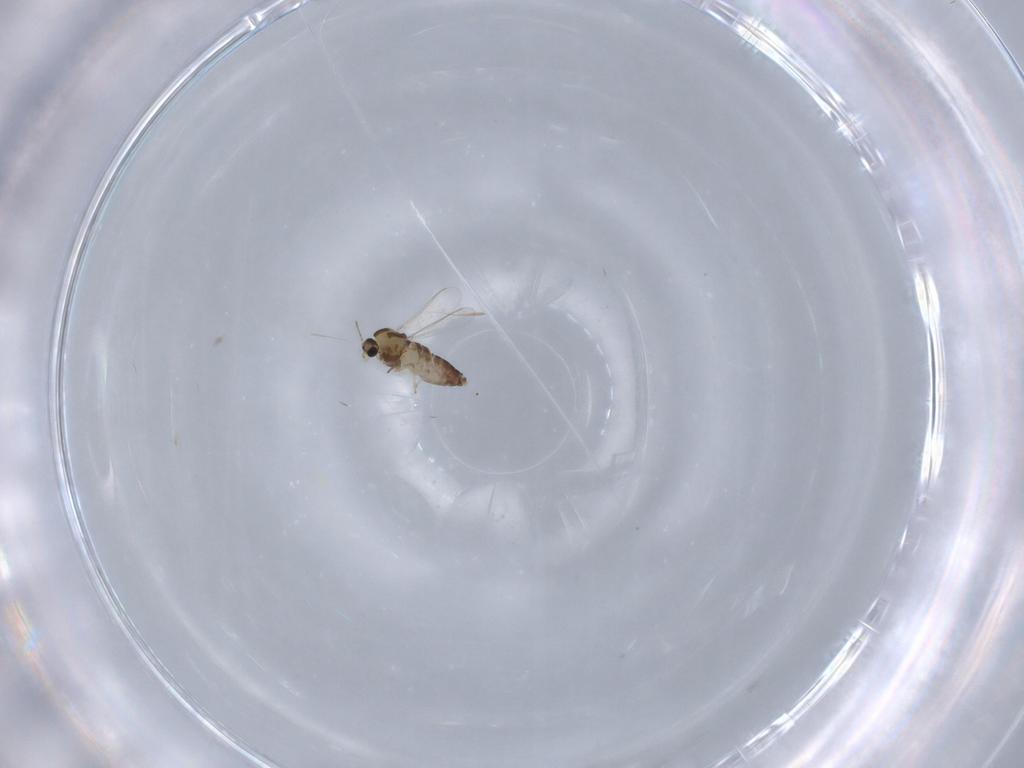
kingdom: Animalia
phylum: Arthropoda
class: Insecta
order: Diptera
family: Chironomidae
